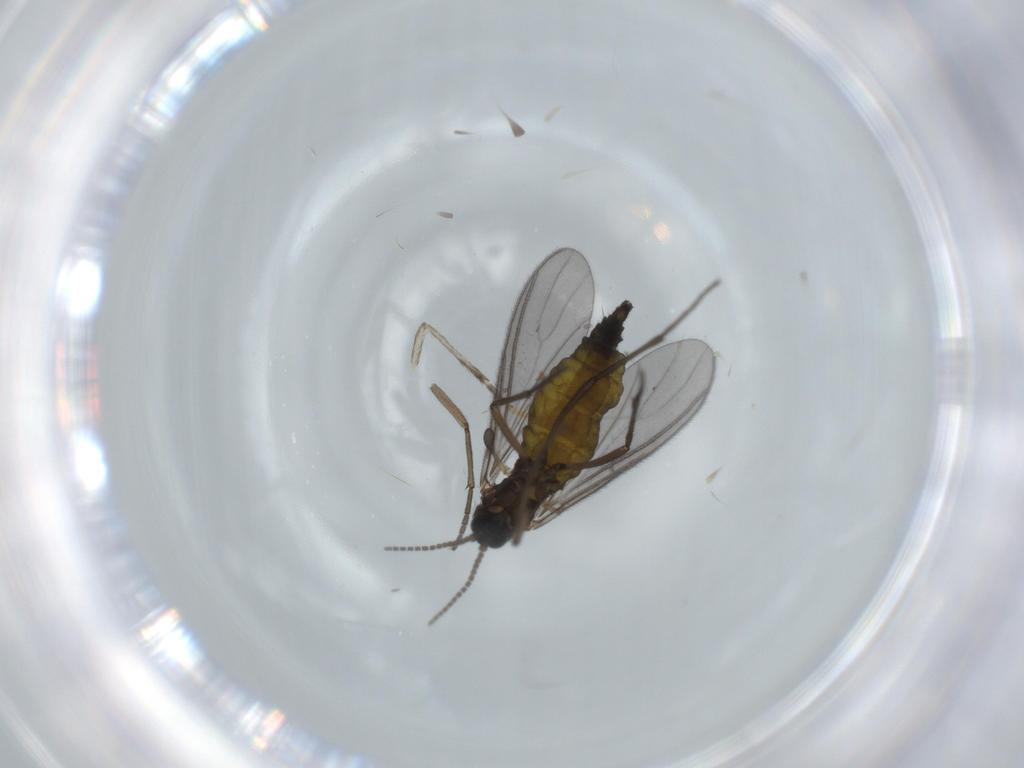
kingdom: Animalia
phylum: Arthropoda
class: Insecta
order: Diptera
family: Sciaridae
